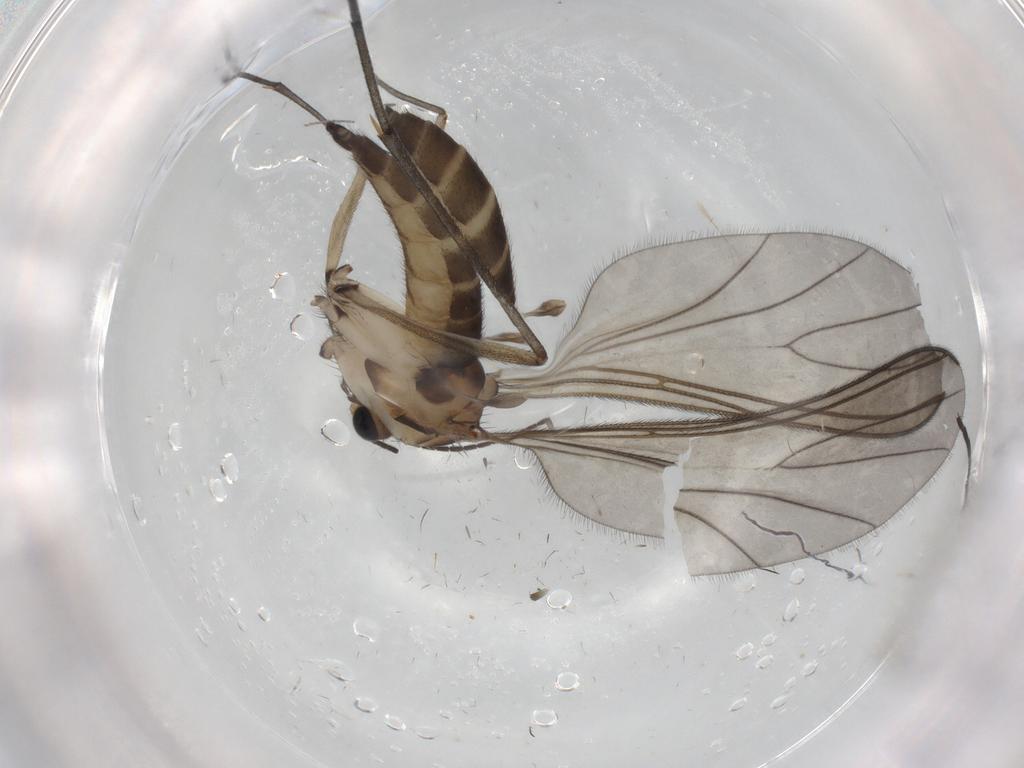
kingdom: Animalia
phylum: Arthropoda
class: Insecta
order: Diptera
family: Sciaridae
